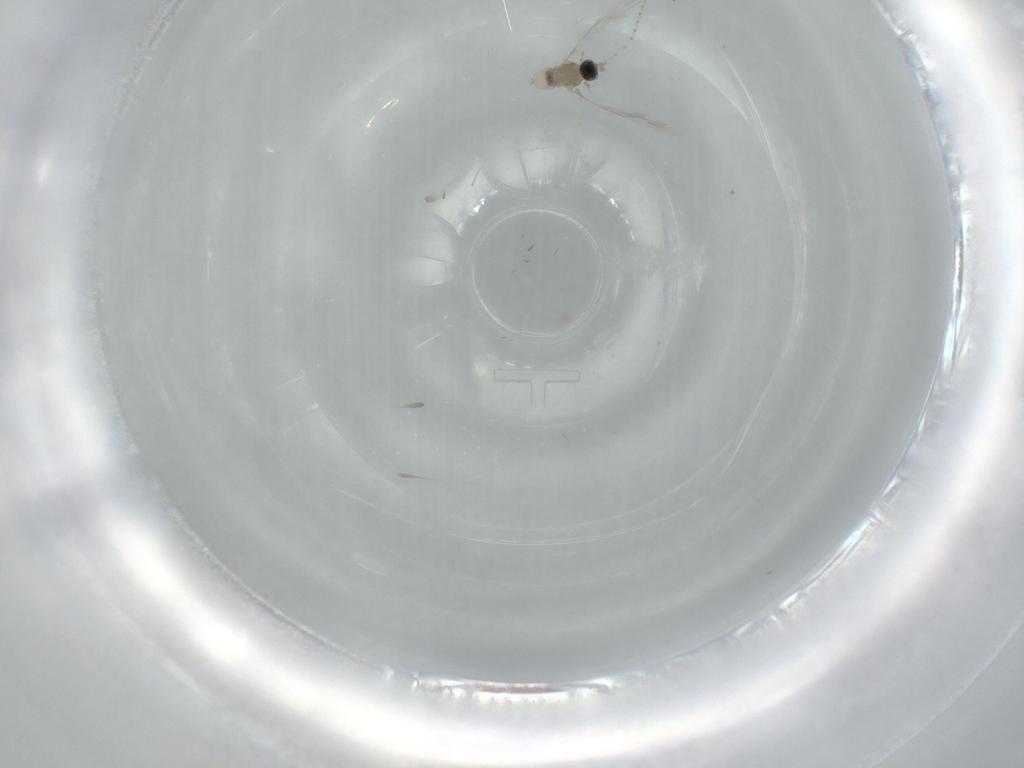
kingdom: Animalia
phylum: Arthropoda
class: Insecta
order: Diptera
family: Cecidomyiidae
